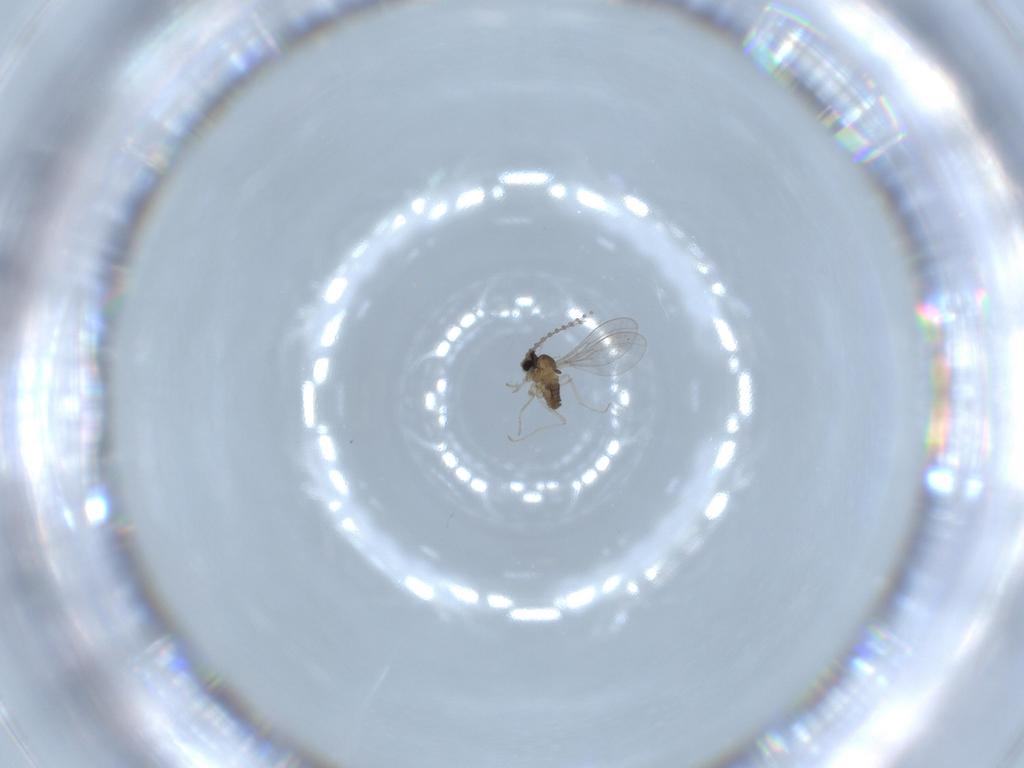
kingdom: Animalia
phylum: Arthropoda
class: Insecta
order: Diptera
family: Cecidomyiidae
